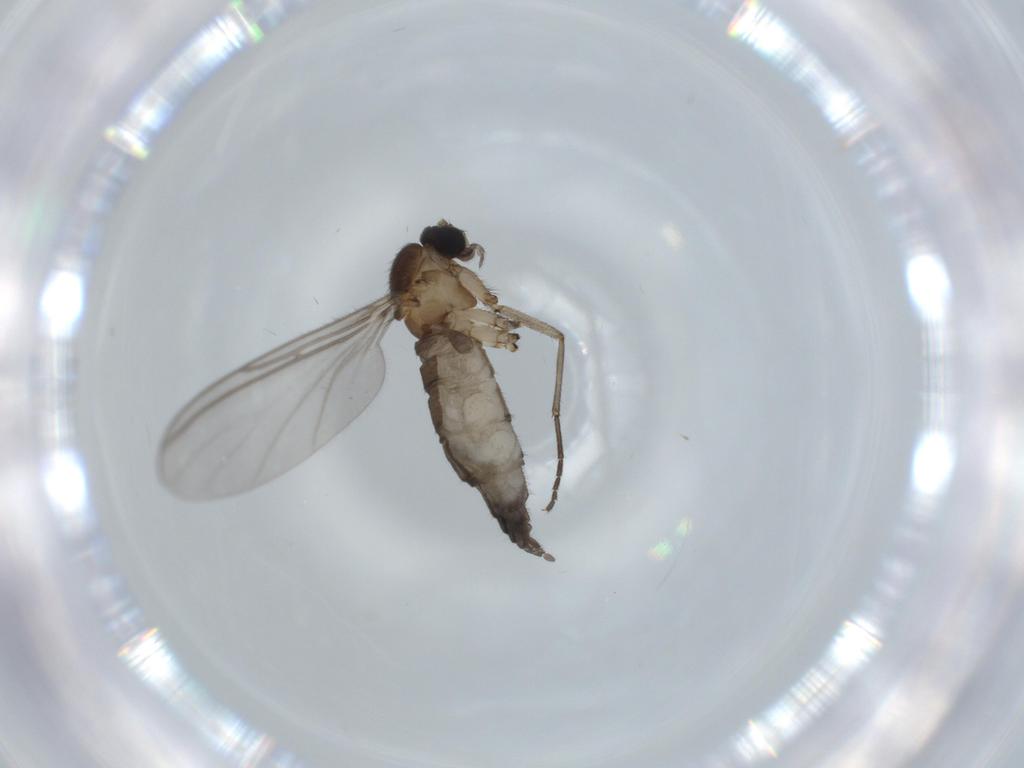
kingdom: Animalia
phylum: Arthropoda
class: Insecta
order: Diptera
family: Sciaridae
